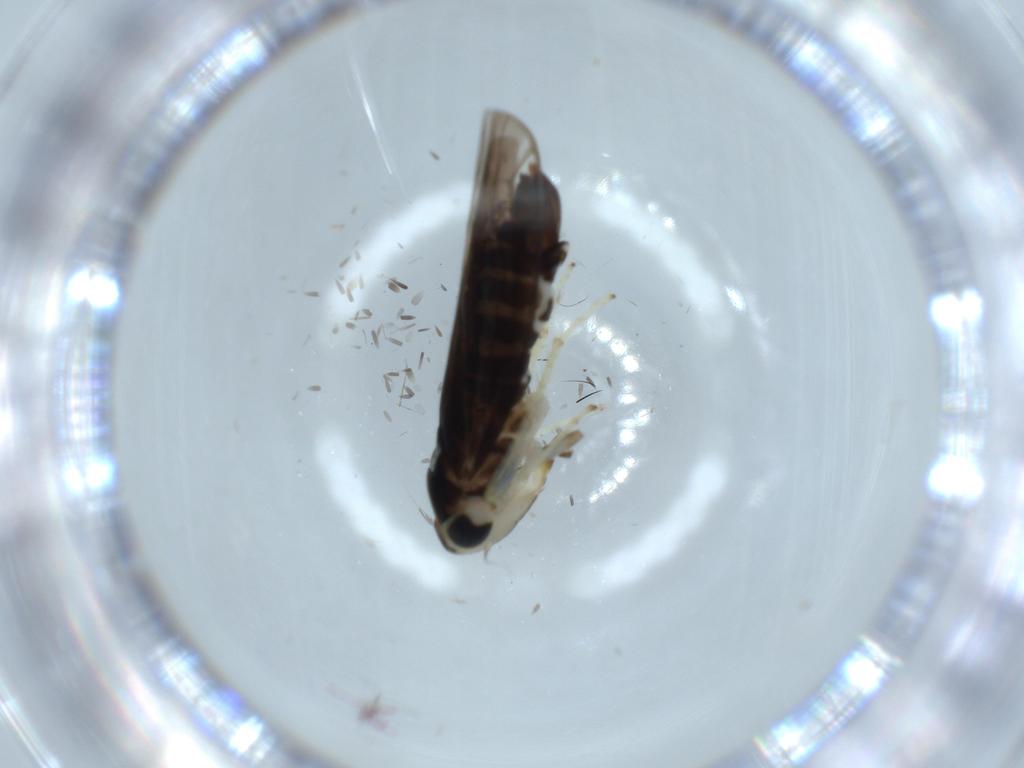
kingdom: Animalia
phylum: Arthropoda
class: Insecta
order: Hemiptera
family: Cicadellidae
